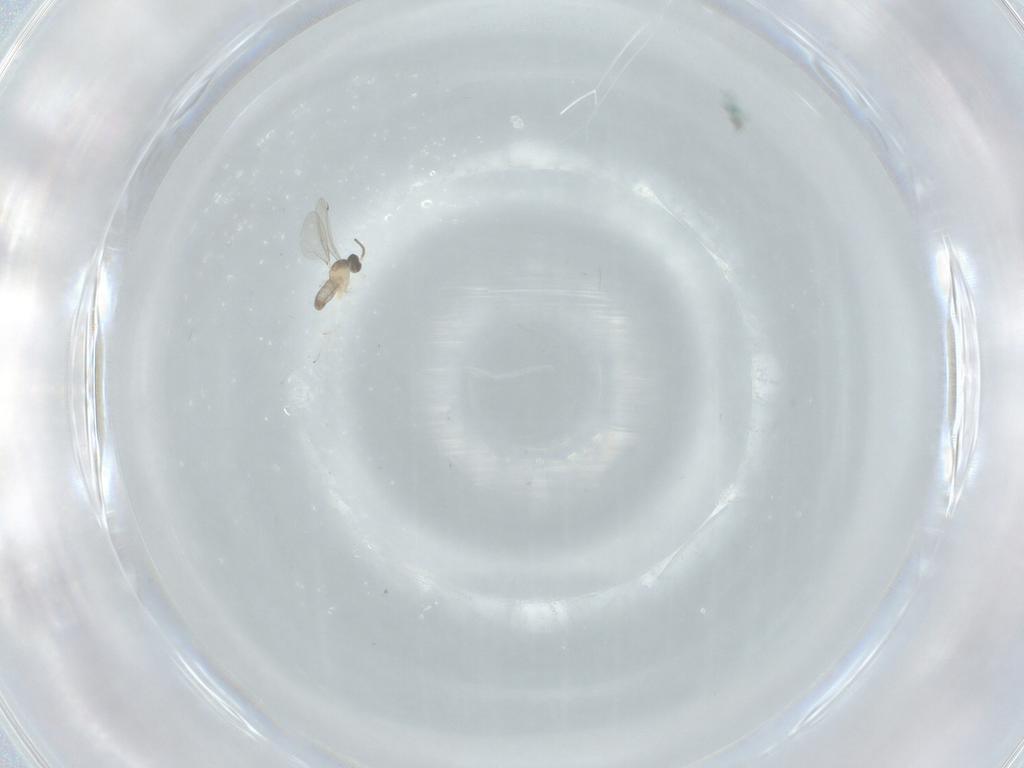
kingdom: Animalia
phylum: Arthropoda
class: Insecta
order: Diptera
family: Cecidomyiidae
